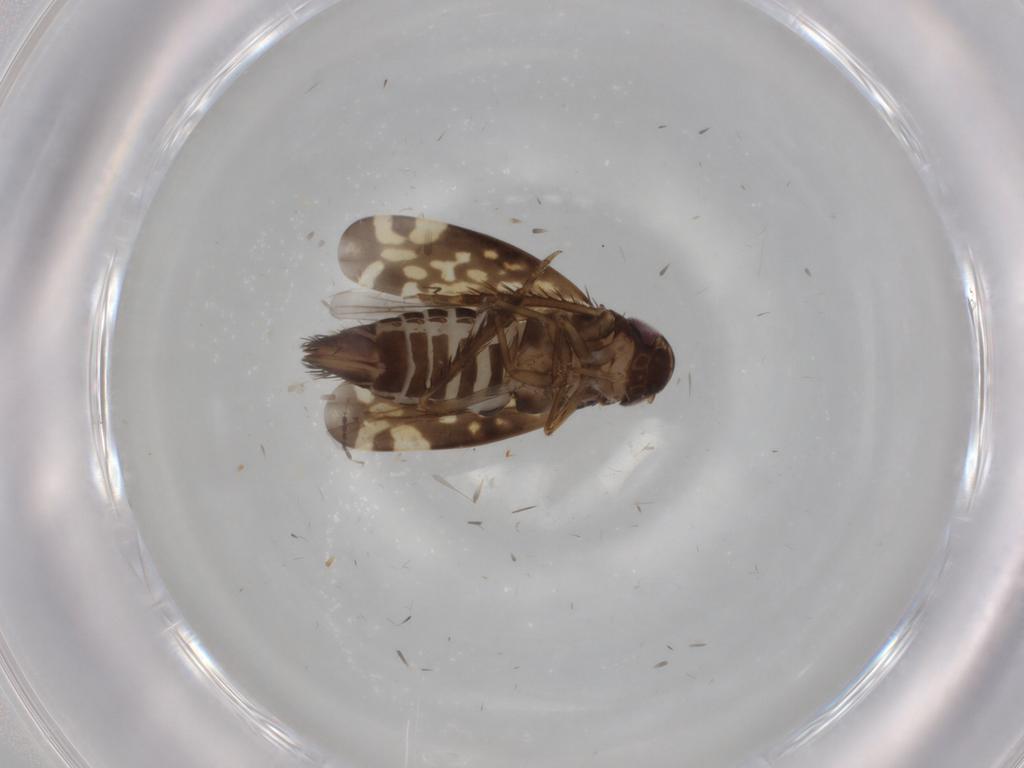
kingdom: Animalia
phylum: Arthropoda
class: Insecta
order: Hemiptera
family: Cicadellidae
